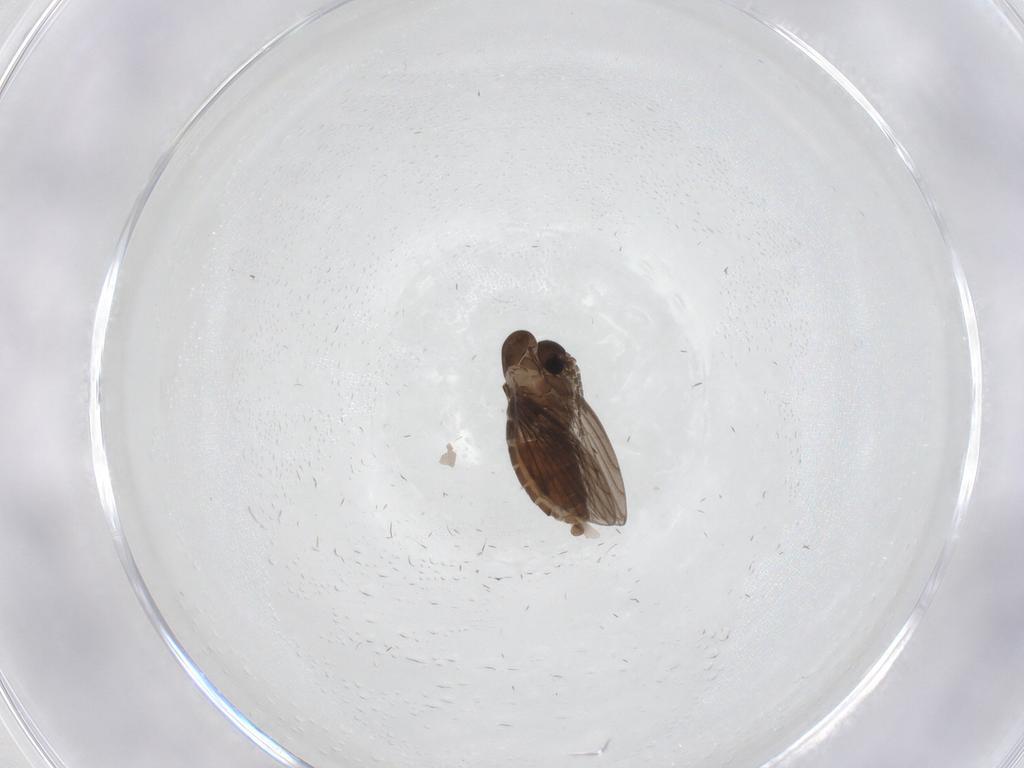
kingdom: Animalia
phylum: Arthropoda
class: Insecta
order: Diptera
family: Psychodidae
